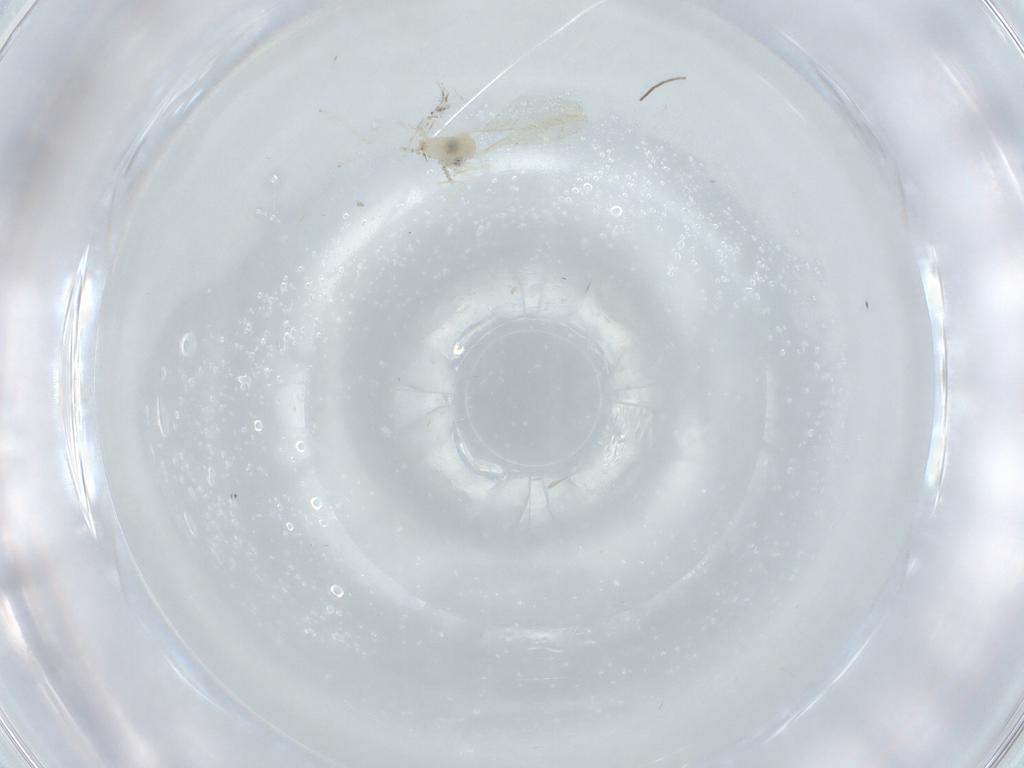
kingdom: Animalia
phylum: Arthropoda
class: Insecta
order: Diptera
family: Cecidomyiidae
